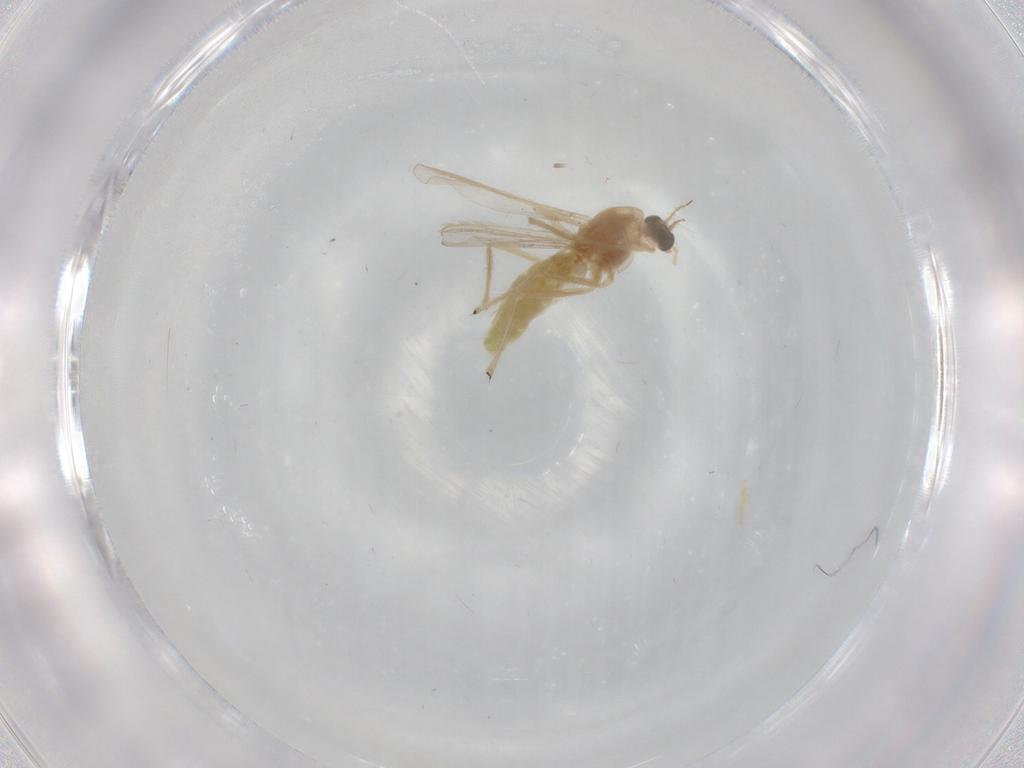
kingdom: Animalia
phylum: Arthropoda
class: Insecta
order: Diptera
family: Chironomidae
